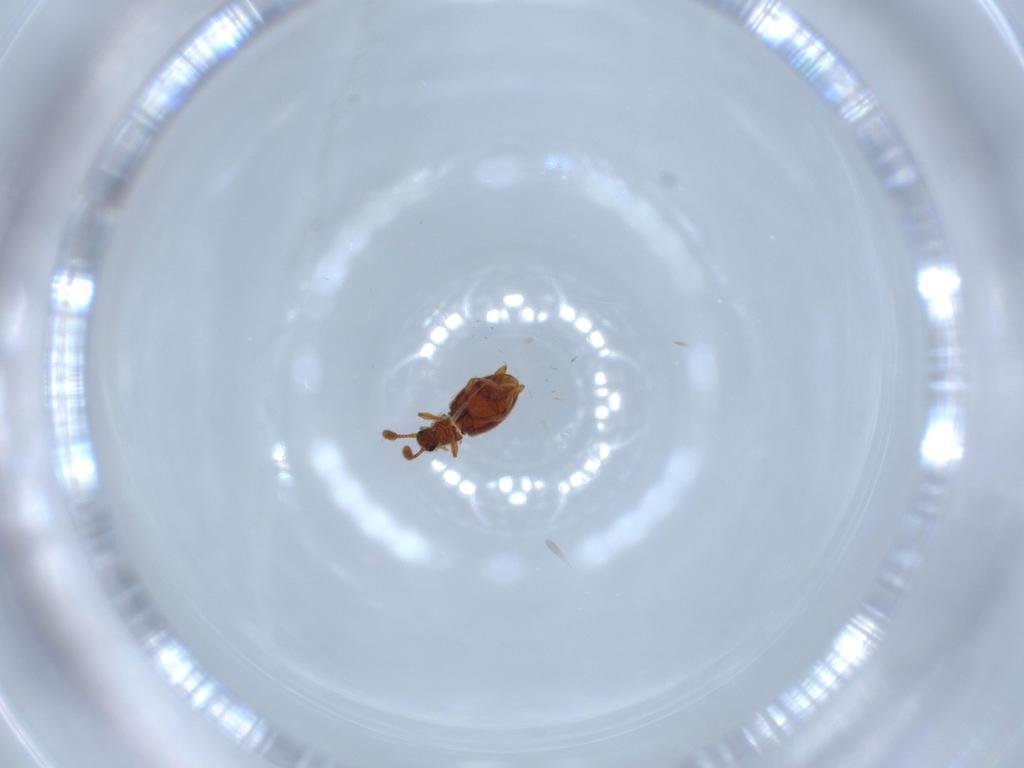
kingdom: Animalia
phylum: Arthropoda
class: Insecta
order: Coleoptera
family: Staphylinidae
